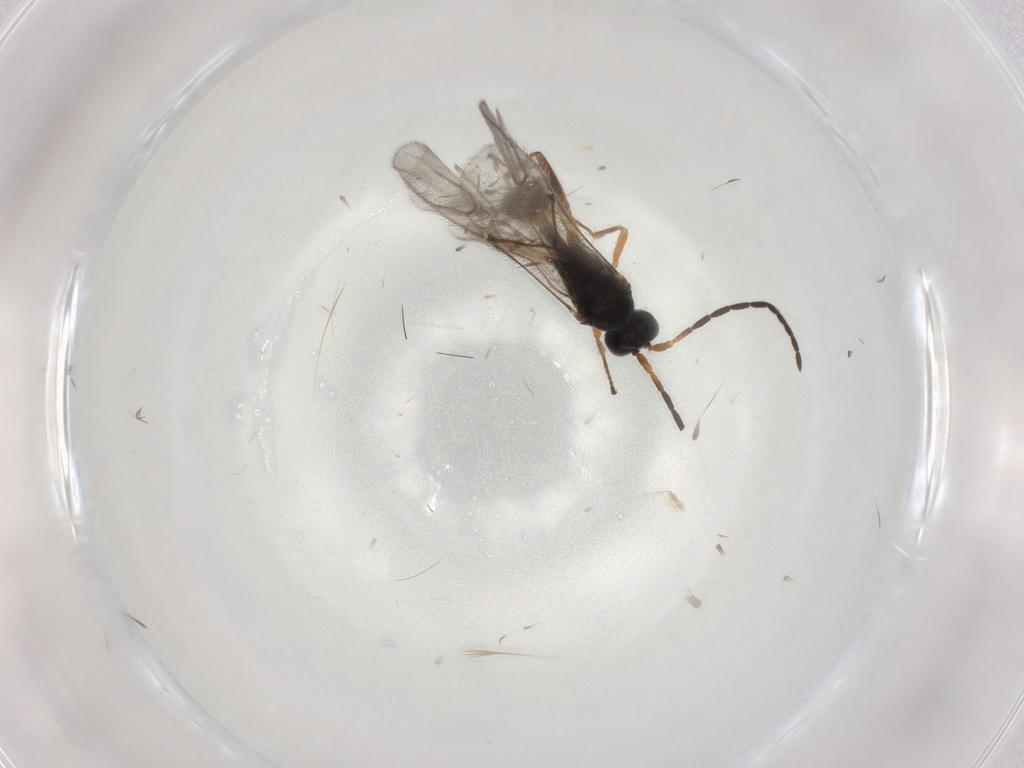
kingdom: Animalia
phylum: Arthropoda
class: Insecta
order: Hymenoptera
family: Braconidae
